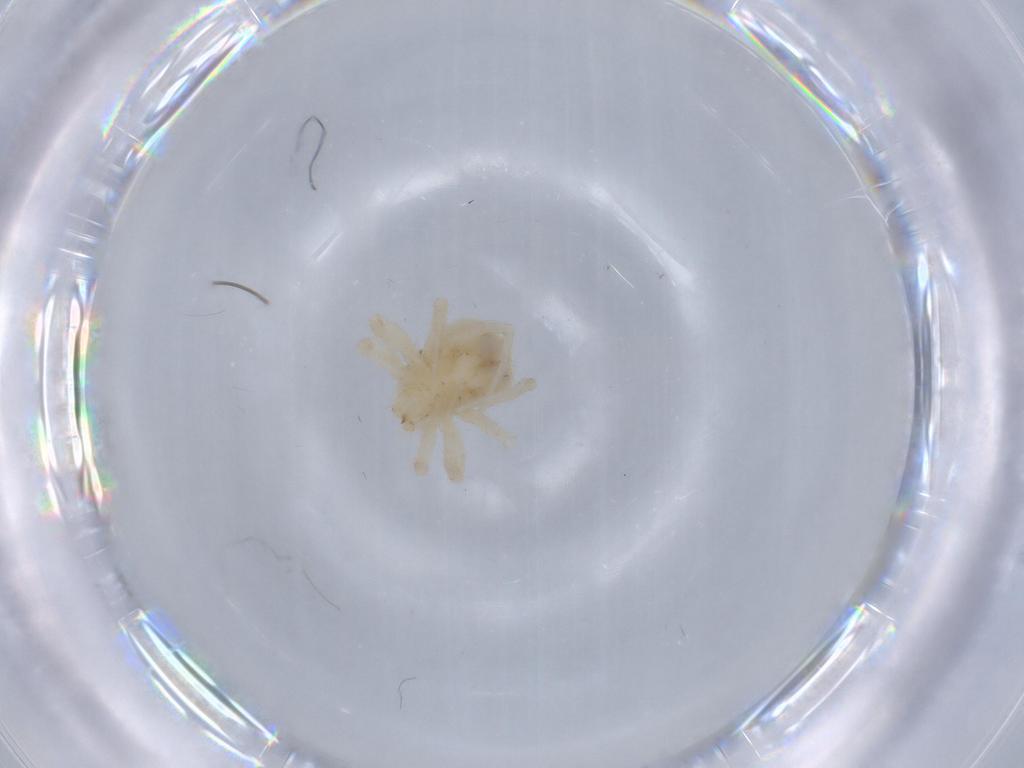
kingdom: Animalia
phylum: Arthropoda
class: Arachnida
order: Trombidiformes
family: Anystidae
